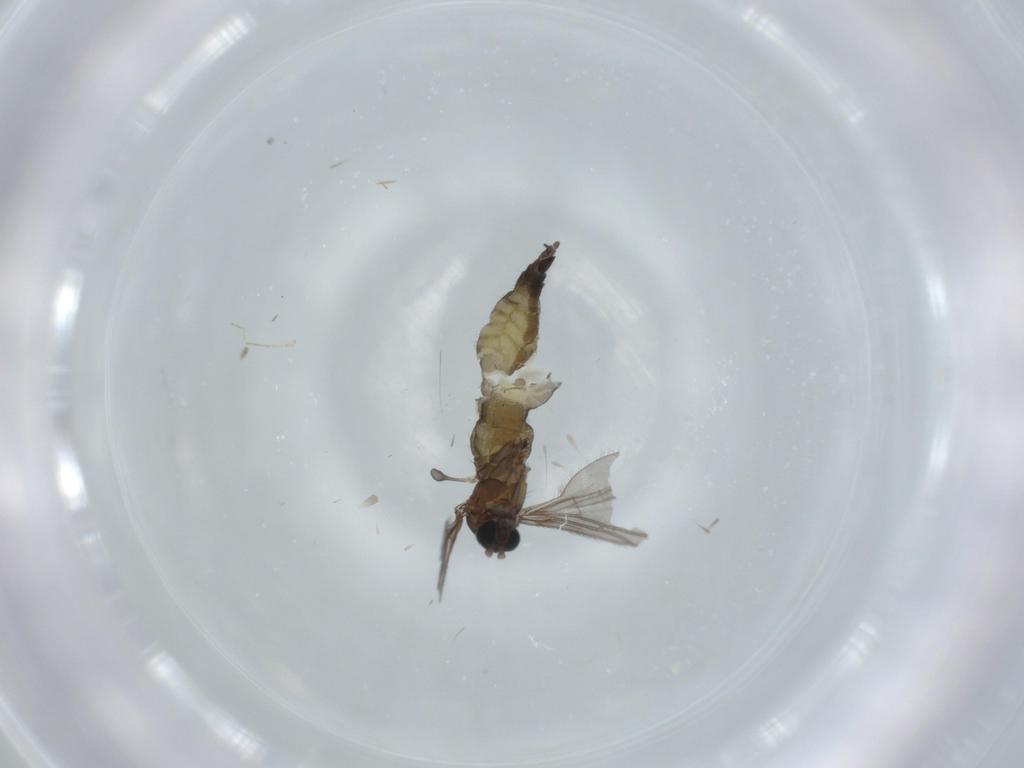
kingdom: Animalia
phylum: Arthropoda
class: Insecta
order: Diptera
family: Sciaridae
